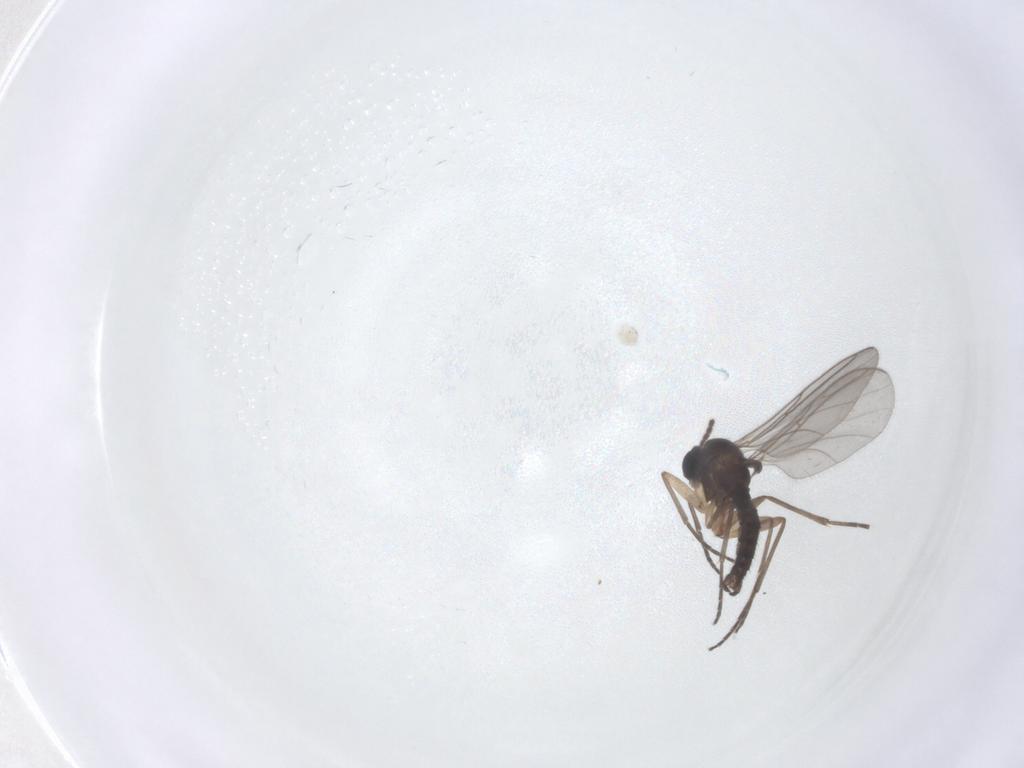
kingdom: Animalia
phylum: Arthropoda
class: Insecta
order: Diptera
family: Sciaridae
